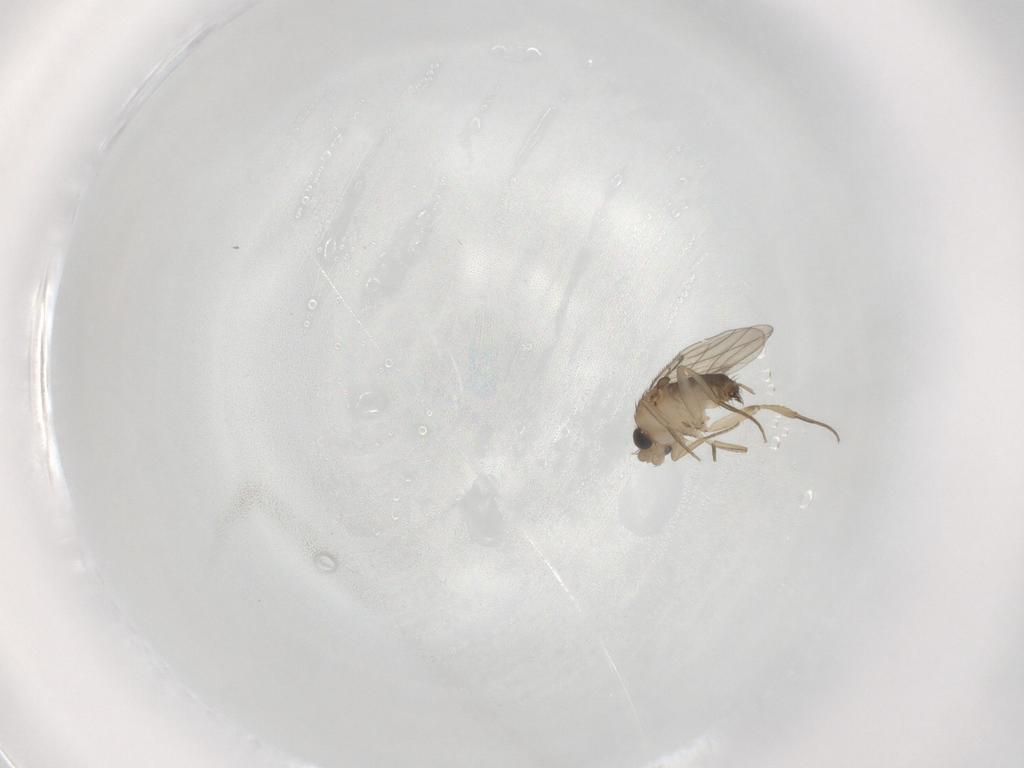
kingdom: Animalia
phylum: Arthropoda
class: Insecta
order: Diptera
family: Phoridae
